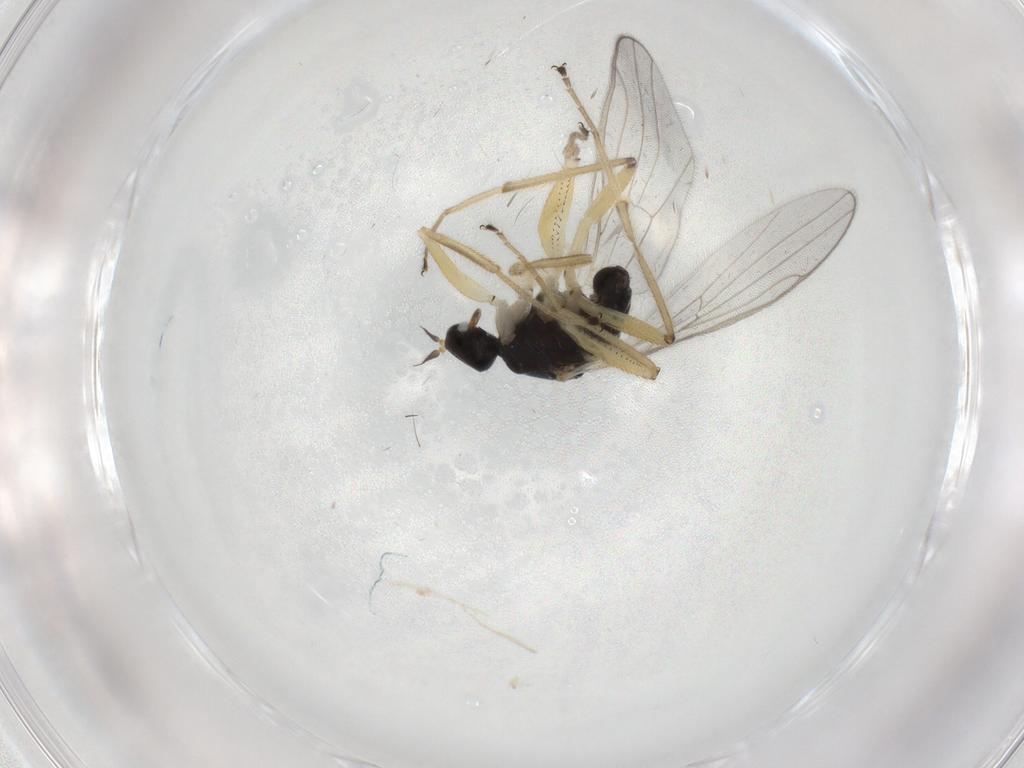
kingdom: Animalia
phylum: Arthropoda
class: Insecta
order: Diptera
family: Hybotidae
